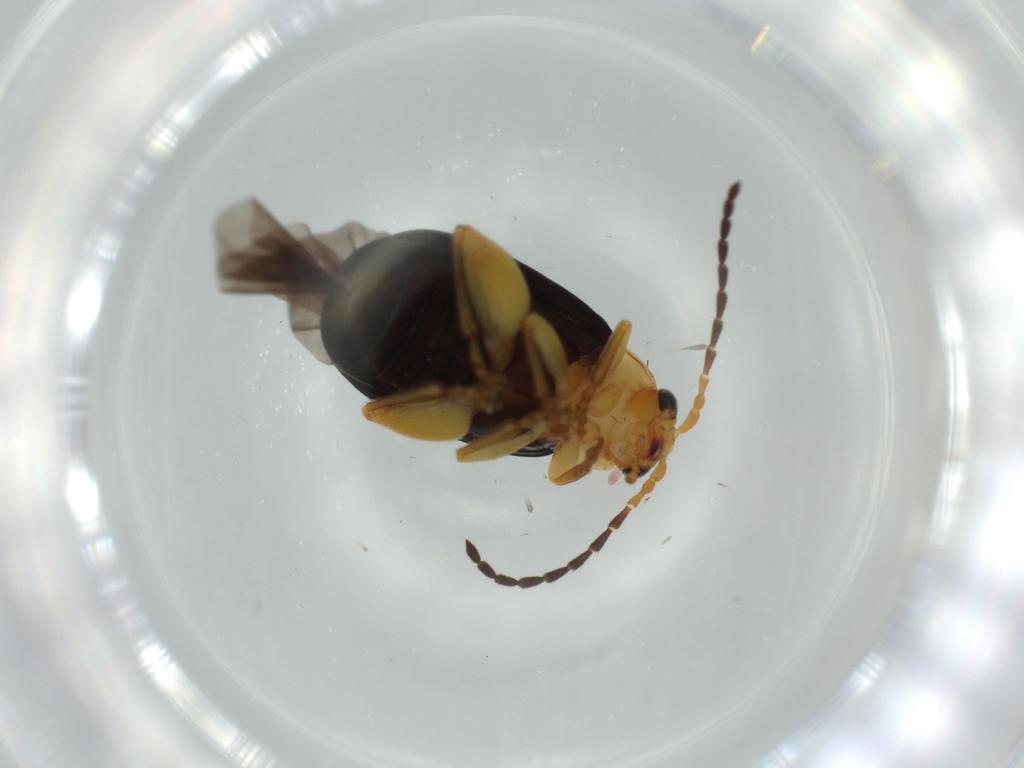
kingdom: Animalia
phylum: Arthropoda
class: Insecta
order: Coleoptera
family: Chrysomelidae
